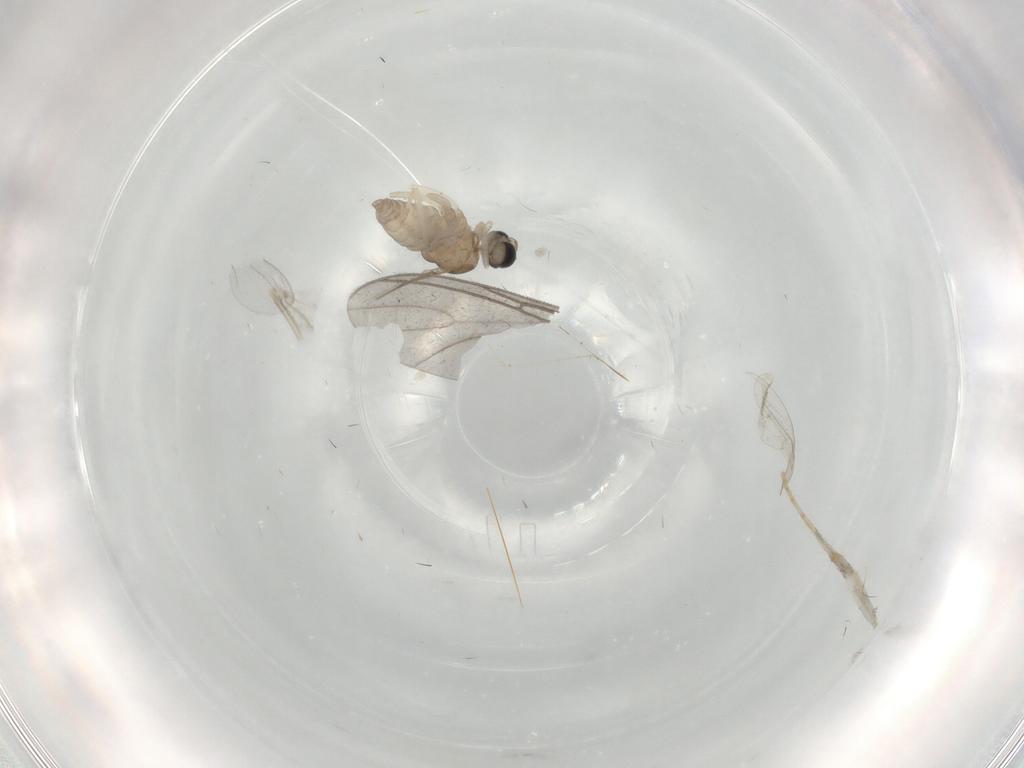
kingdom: Animalia
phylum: Arthropoda
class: Insecta
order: Diptera
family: Cecidomyiidae
